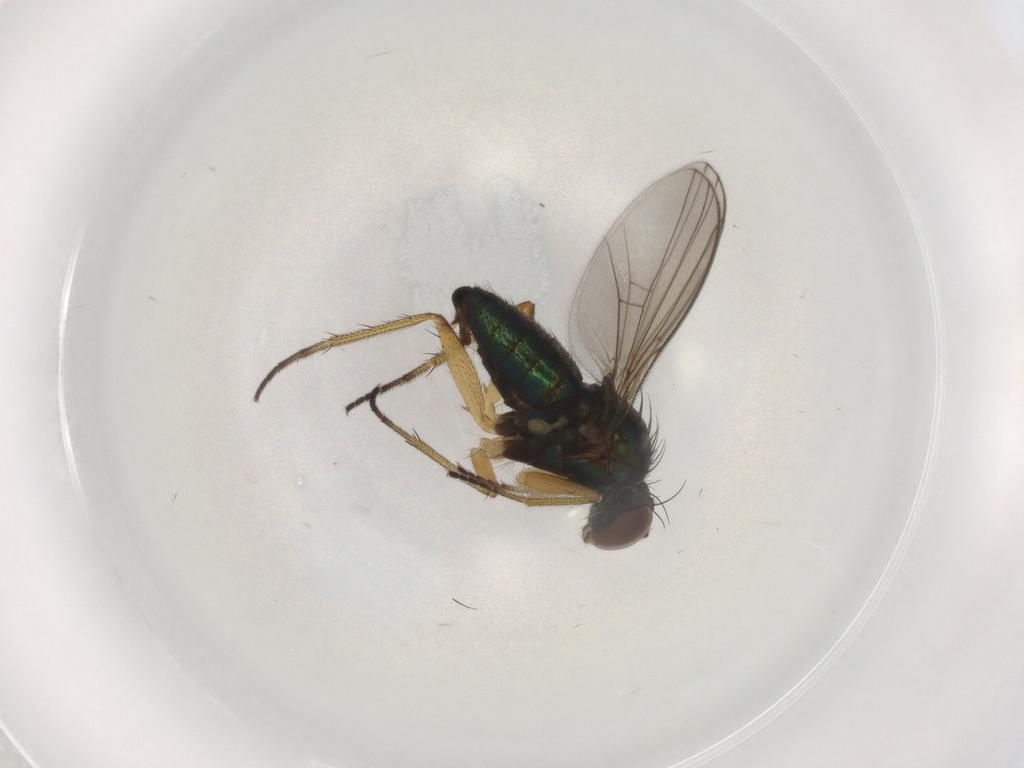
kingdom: Animalia
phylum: Arthropoda
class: Insecta
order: Diptera
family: Dolichopodidae
